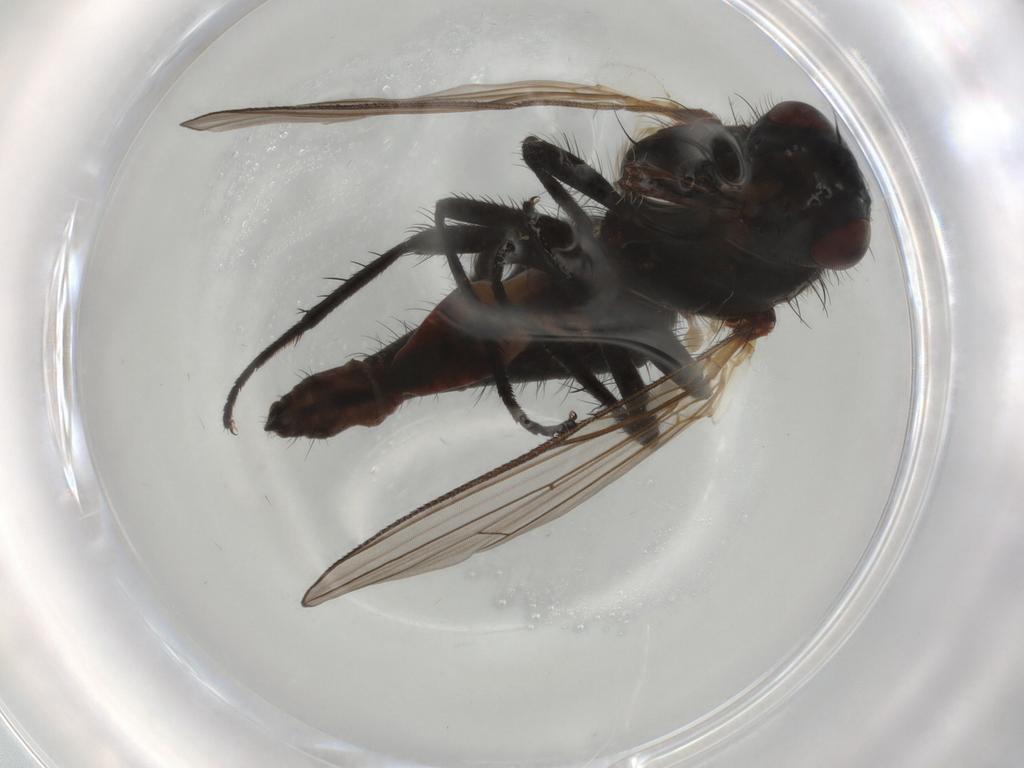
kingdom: Animalia
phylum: Arthropoda
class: Insecta
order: Diptera
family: Anthomyiidae
